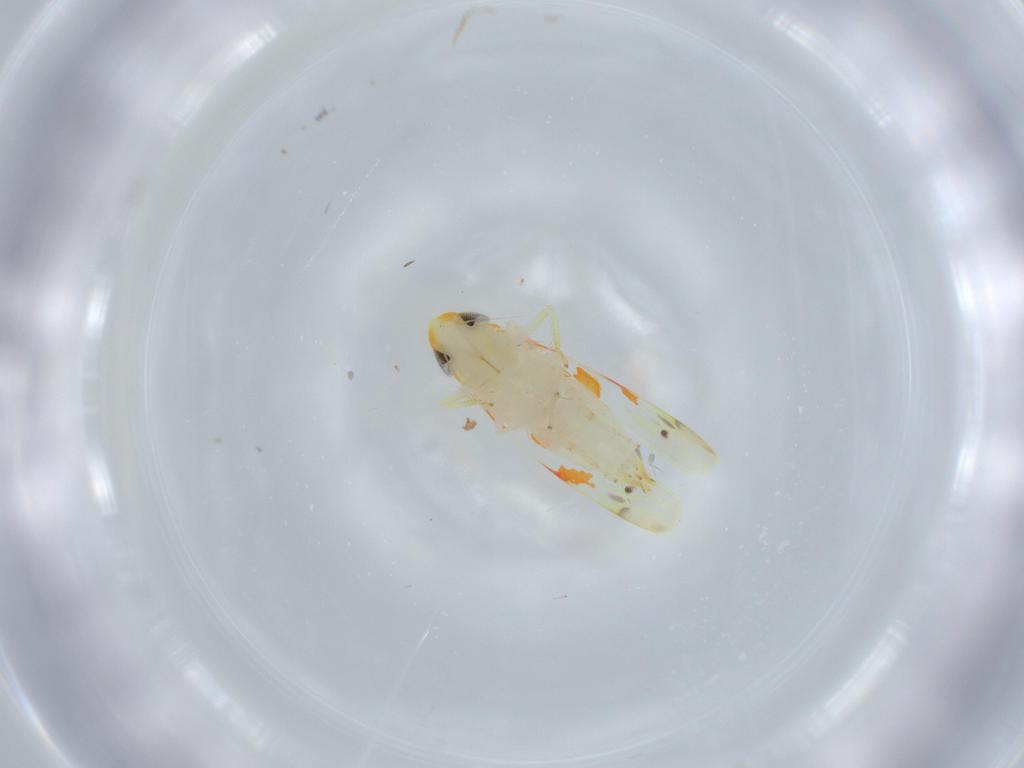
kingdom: Animalia
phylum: Arthropoda
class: Insecta
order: Hemiptera
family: Cicadellidae
